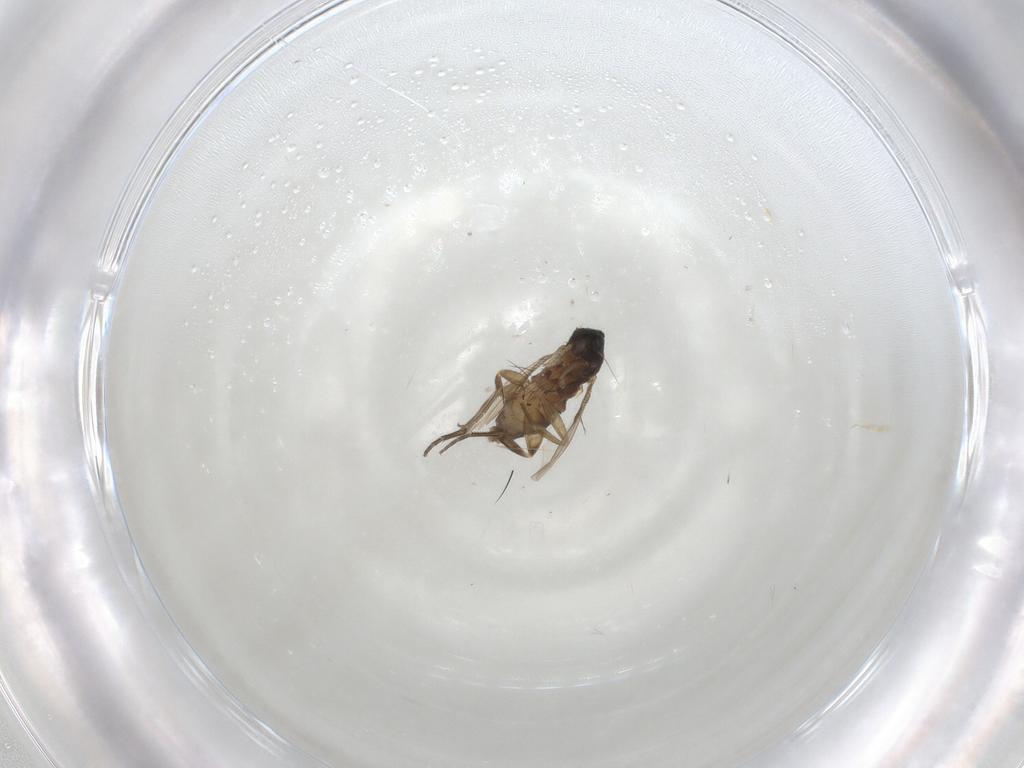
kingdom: Animalia
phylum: Arthropoda
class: Insecta
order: Diptera
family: Phoridae
